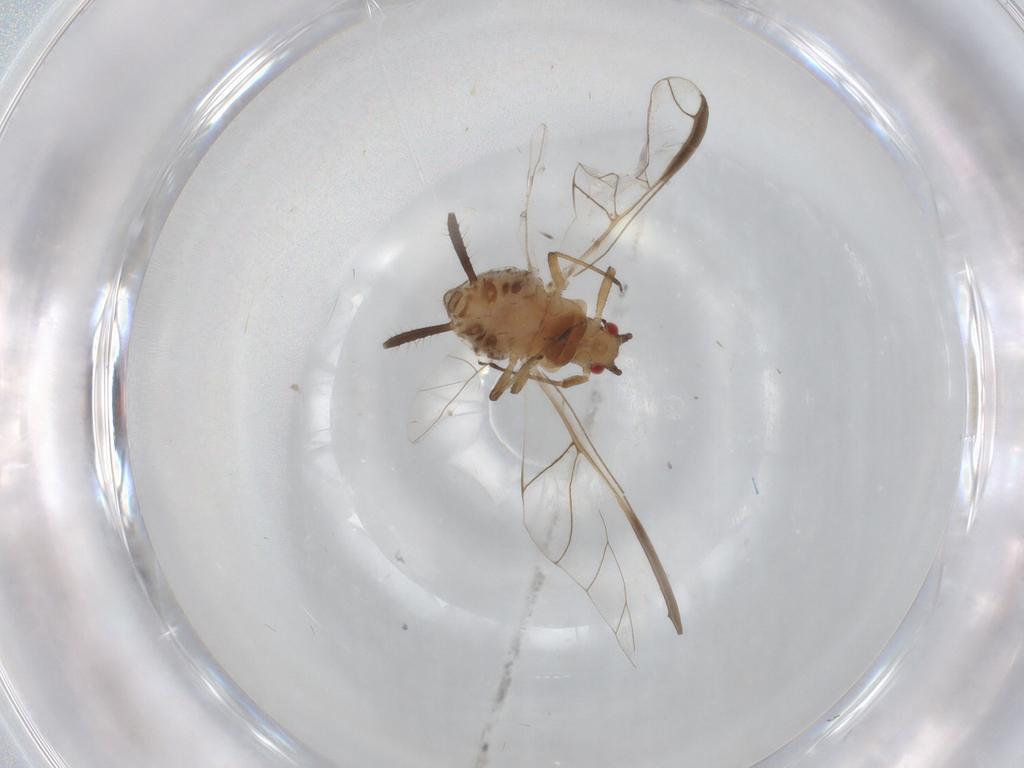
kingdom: Animalia
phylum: Arthropoda
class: Insecta
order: Hemiptera
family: Aphididae
